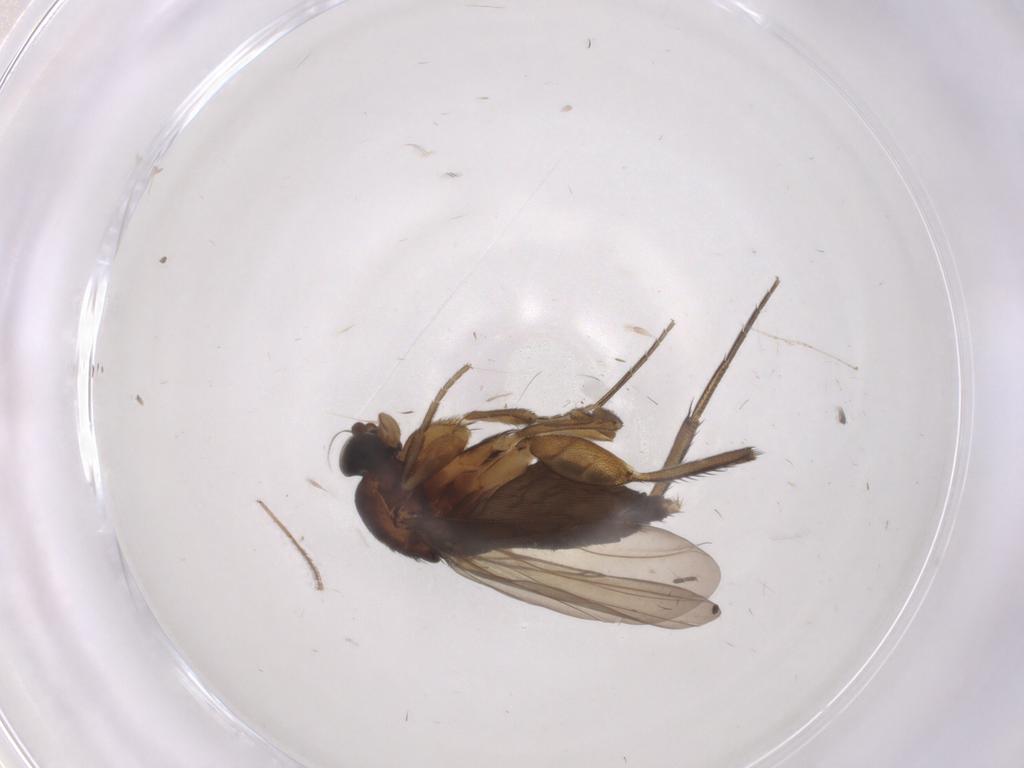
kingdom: Animalia
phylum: Arthropoda
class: Insecta
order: Diptera
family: Phoridae
